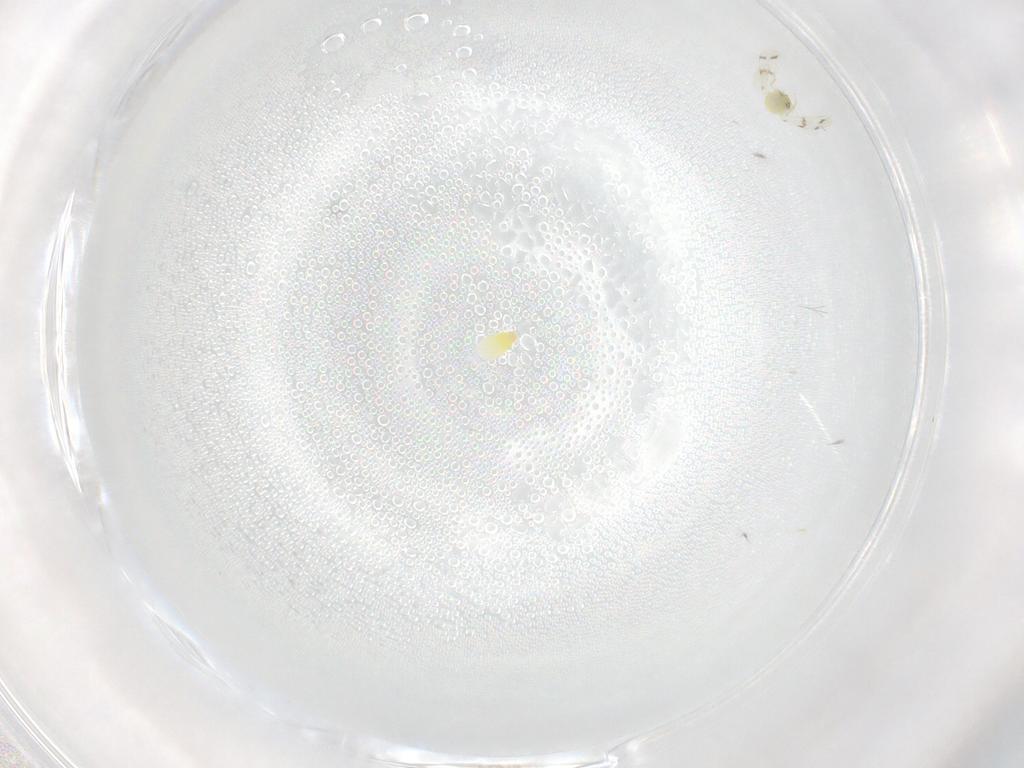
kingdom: Animalia
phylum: Arthropoda
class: Insecta
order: Hemiptera
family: Aleyrodidae
